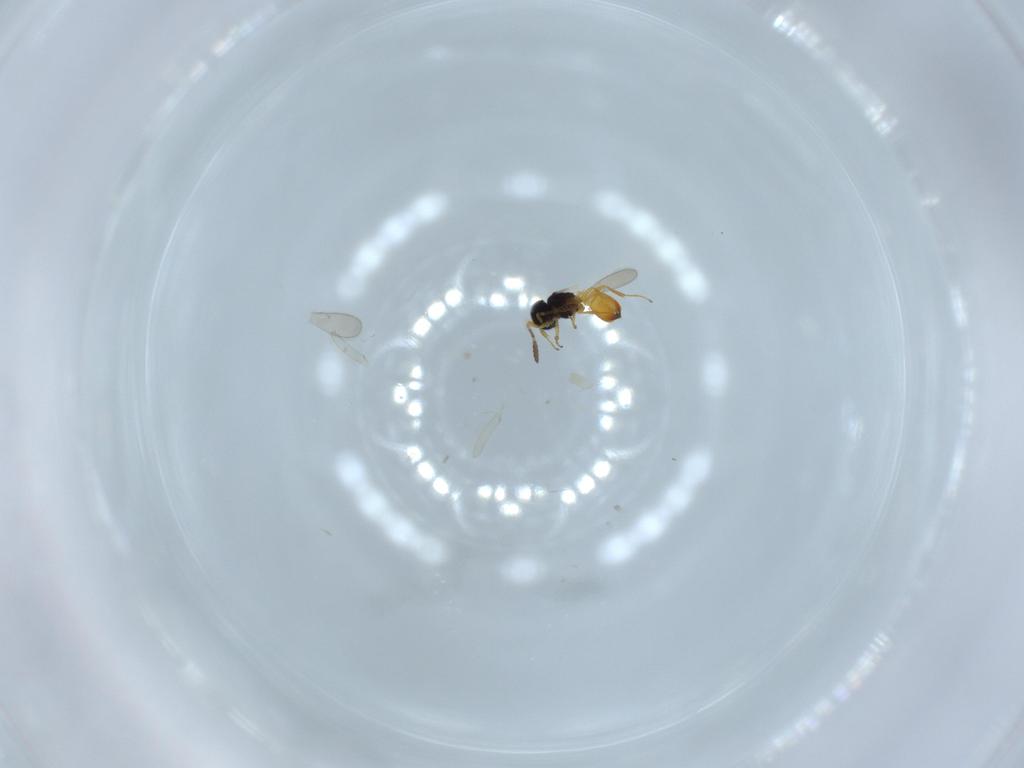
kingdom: Animalia
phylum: Arthropoda
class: Insecta
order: Hymenoptera
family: Scelionidae
